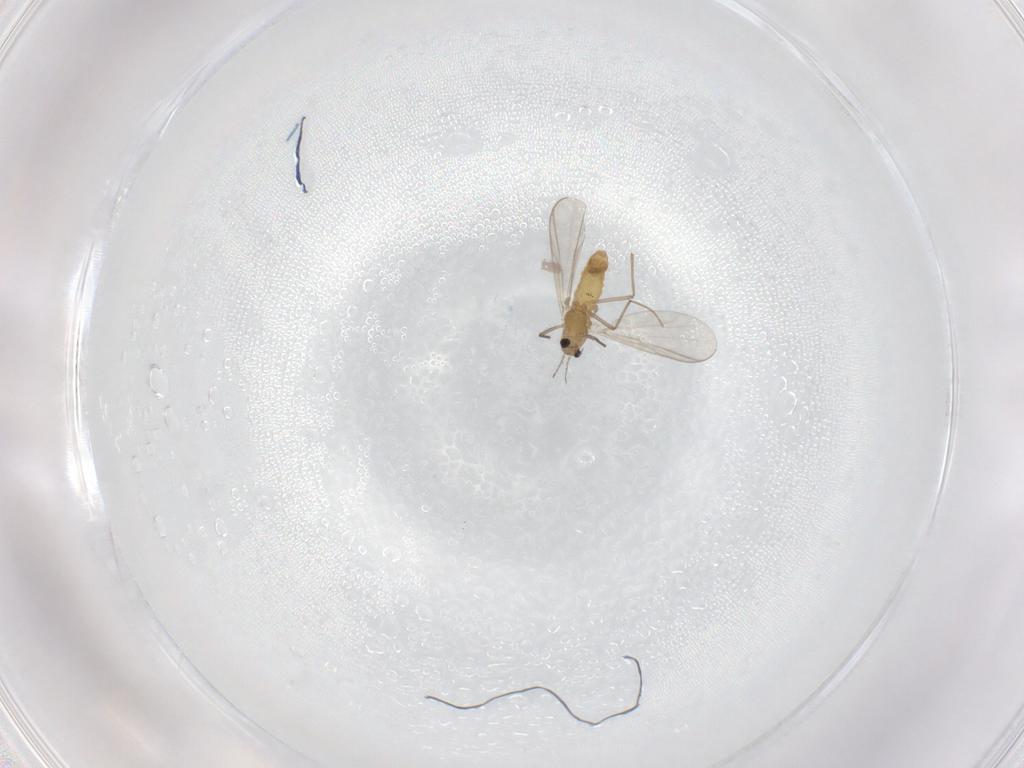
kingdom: Animalia
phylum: Arthropoda
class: Insecta
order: Diptera
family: Chironomidae
